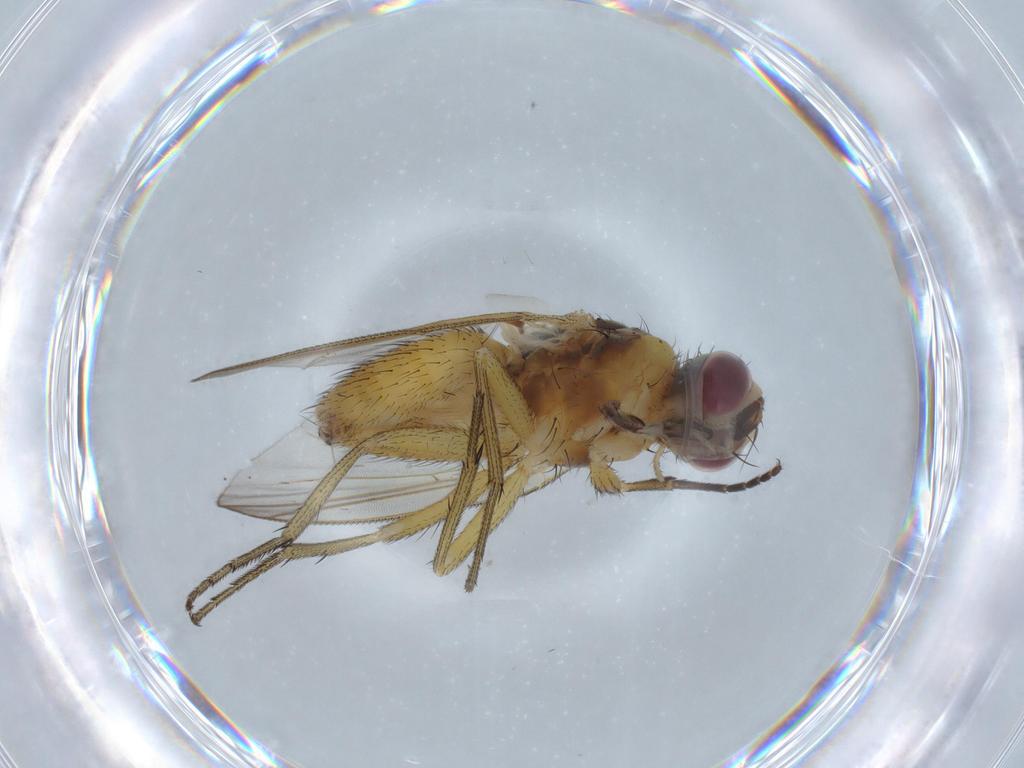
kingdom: Animalia
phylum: Arthropoda
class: Insecta
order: Diptera
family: Muscidae
